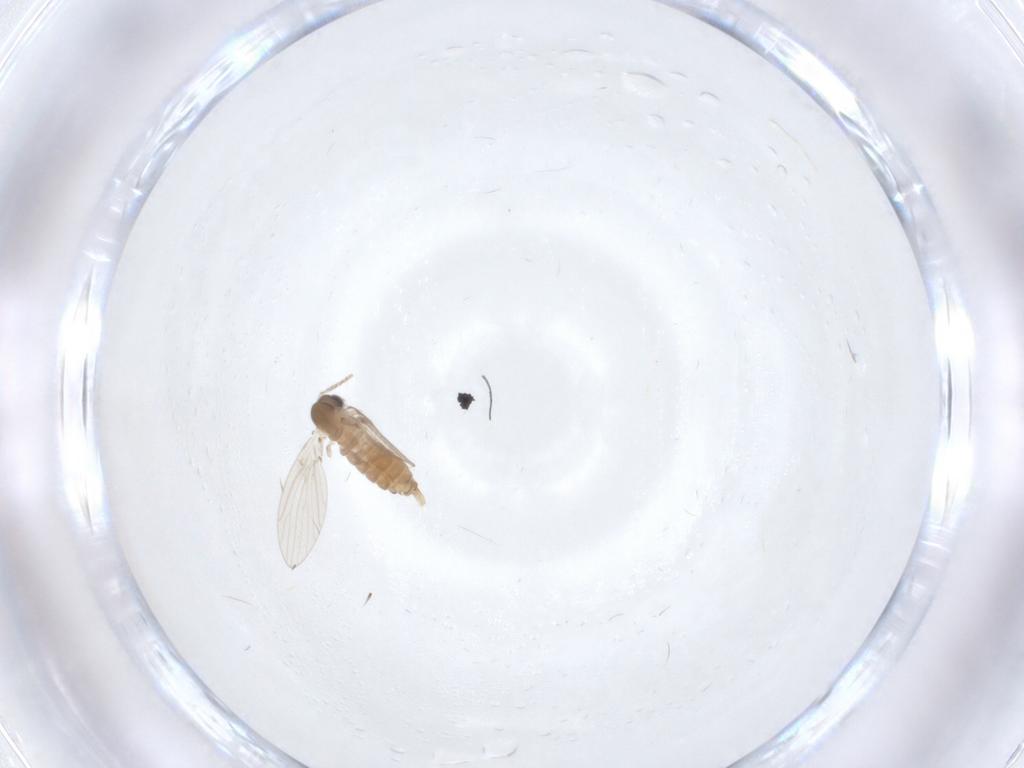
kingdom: Animalia
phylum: Arthropoda
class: Insecta
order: Diptera
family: Psychodidae
